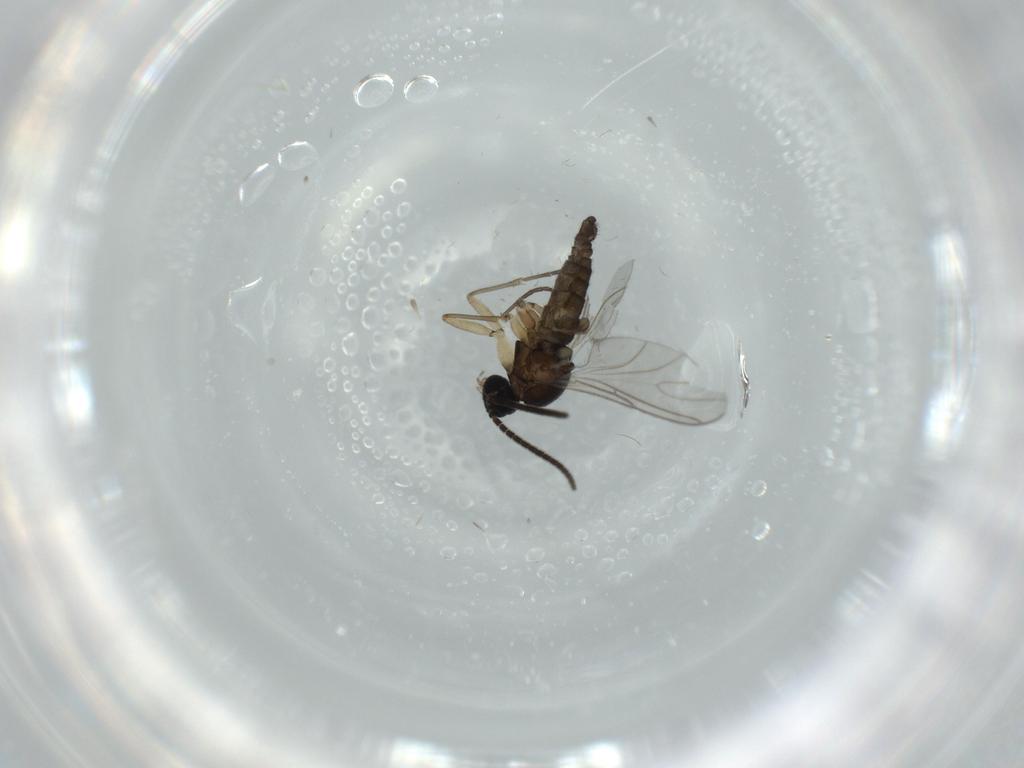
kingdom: Animalia
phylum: Arthropoda
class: Insecta
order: Diptera
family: Sciaridae
